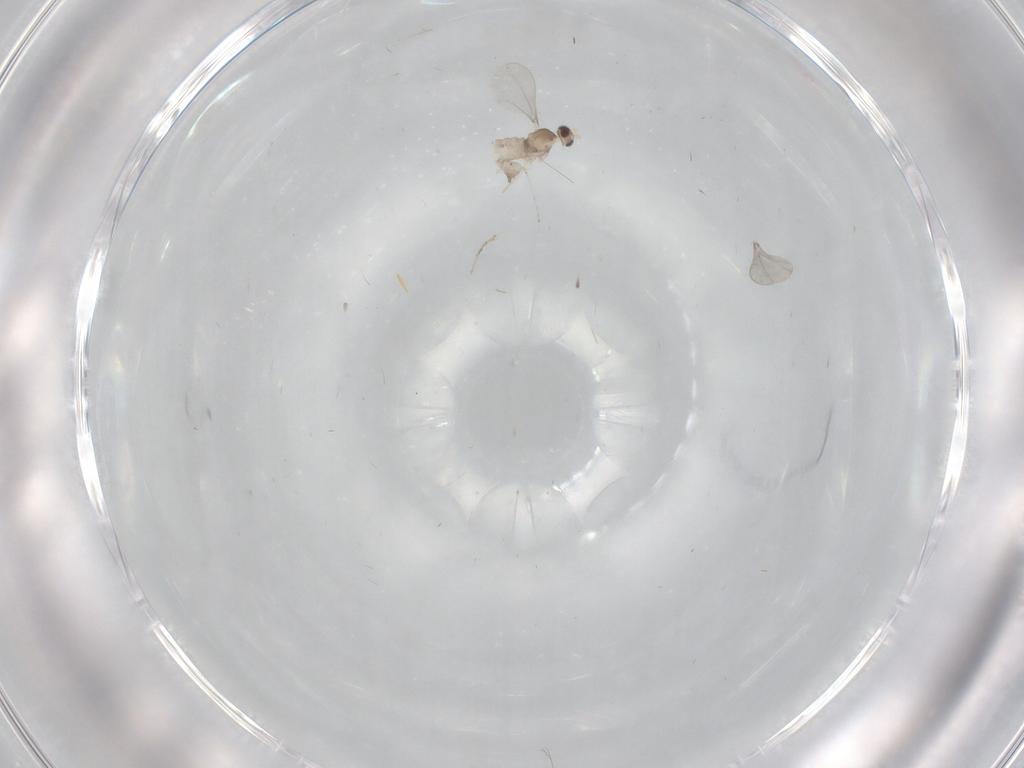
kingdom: Animalia
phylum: Arthropoda
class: Insecta
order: Diptera
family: Cecidomyiidae
